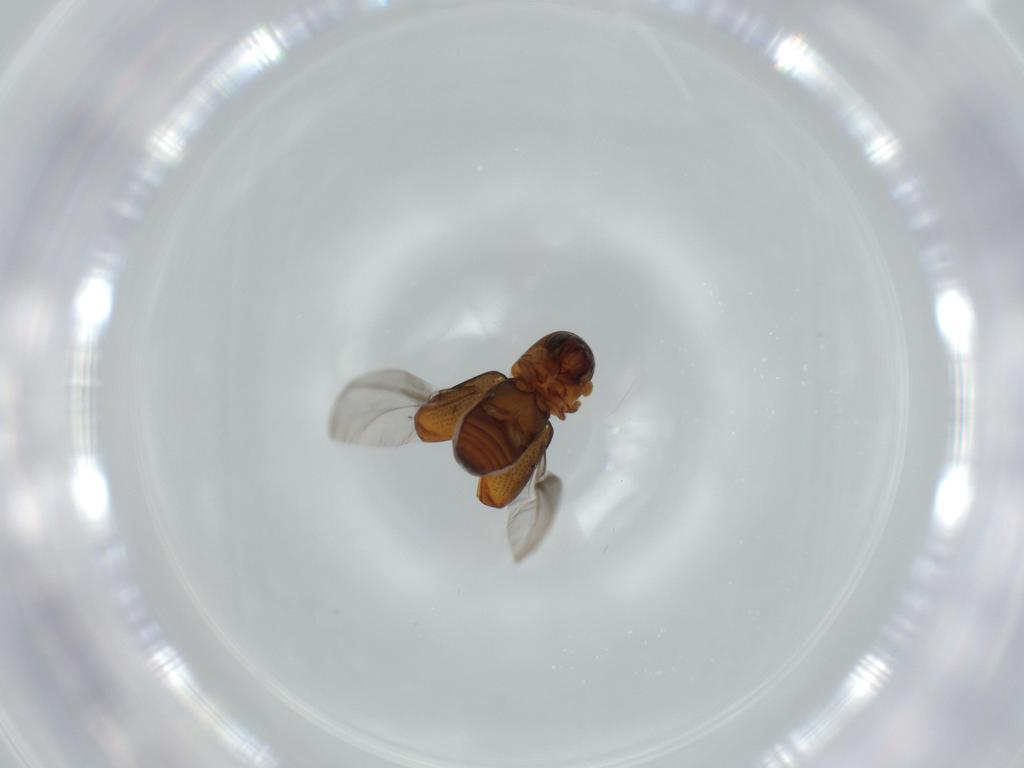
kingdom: Animalia
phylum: Arthropoda
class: Insecta
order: Coleoptera
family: Curculionidae
